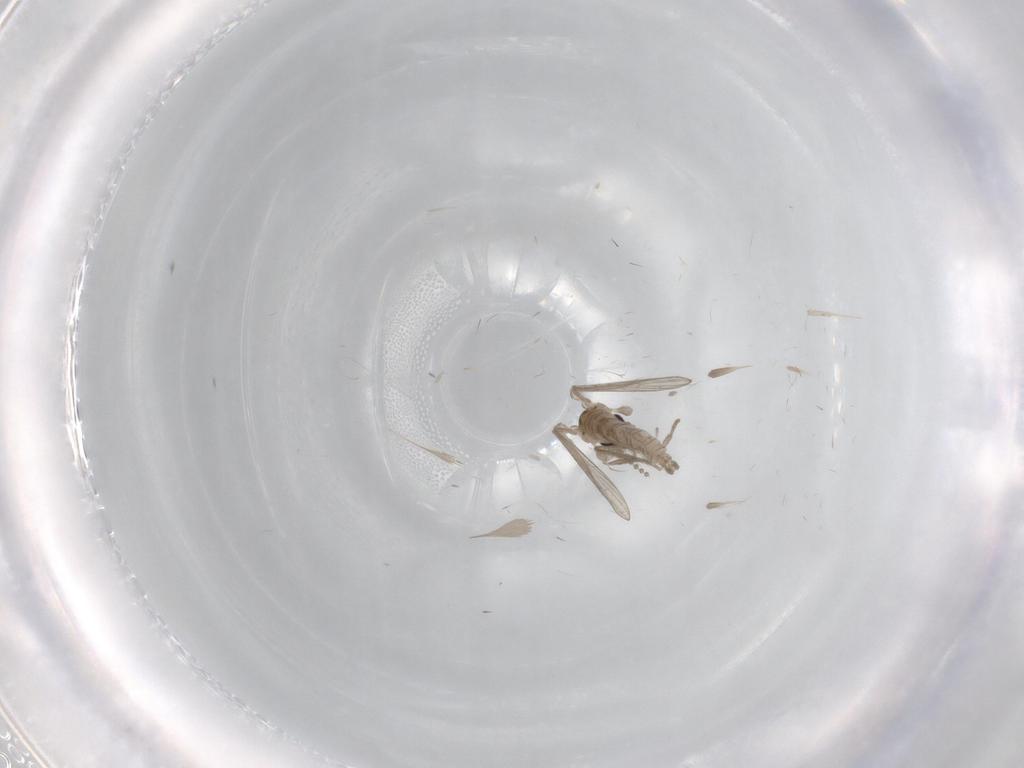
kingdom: Animalia
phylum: Arthropoda
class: Insecta
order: Diptera
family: Psychodidae
